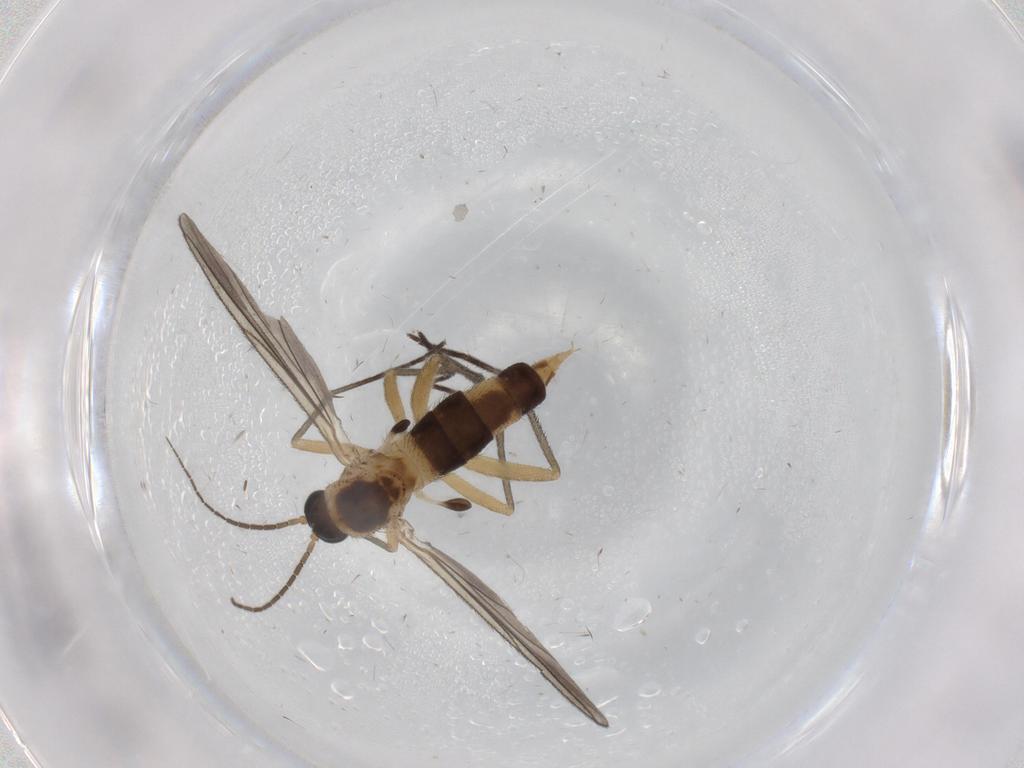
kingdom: Animalia
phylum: Arthropoda
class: Insecta
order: Diptera
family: Sciaridae
